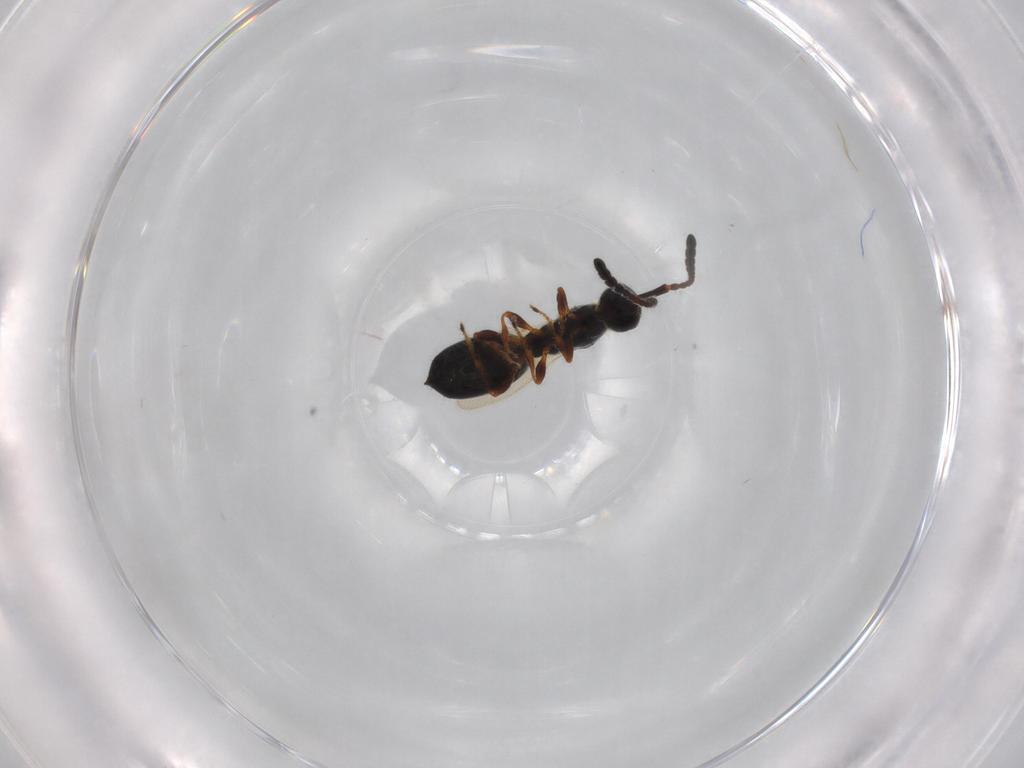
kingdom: Animalia
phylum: Arthropoda
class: Insecta
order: Hymenoptera
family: Diapriidae
